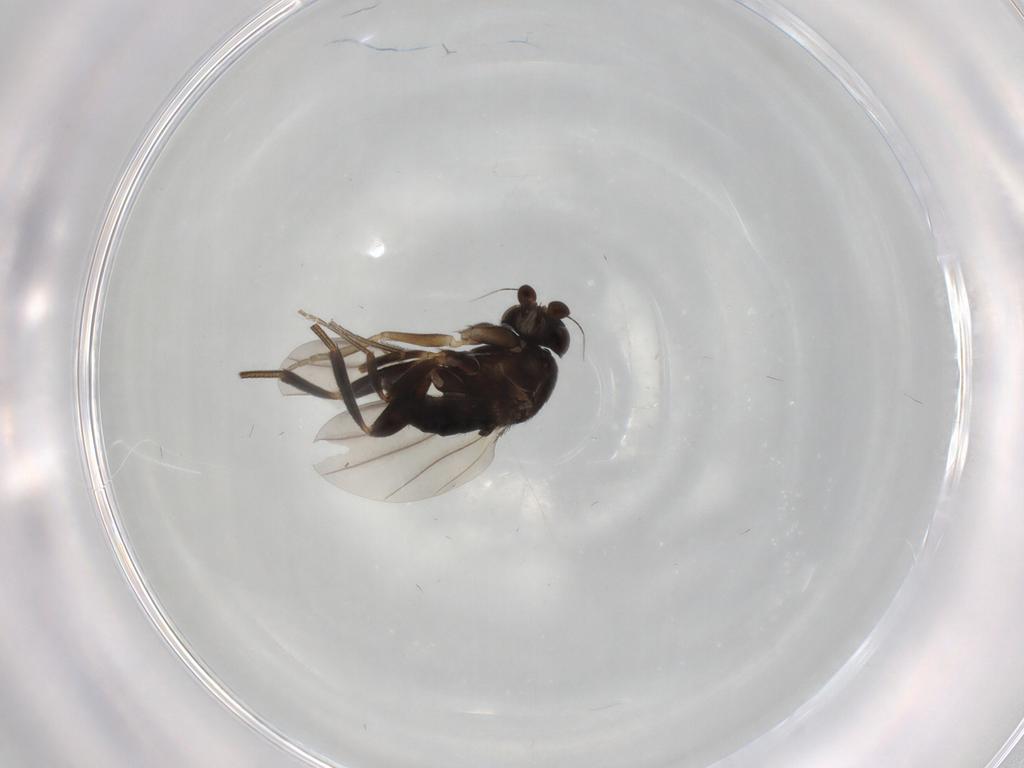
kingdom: Animalia
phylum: Arthropoda
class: Insecta
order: Diptera
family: Phoridae
